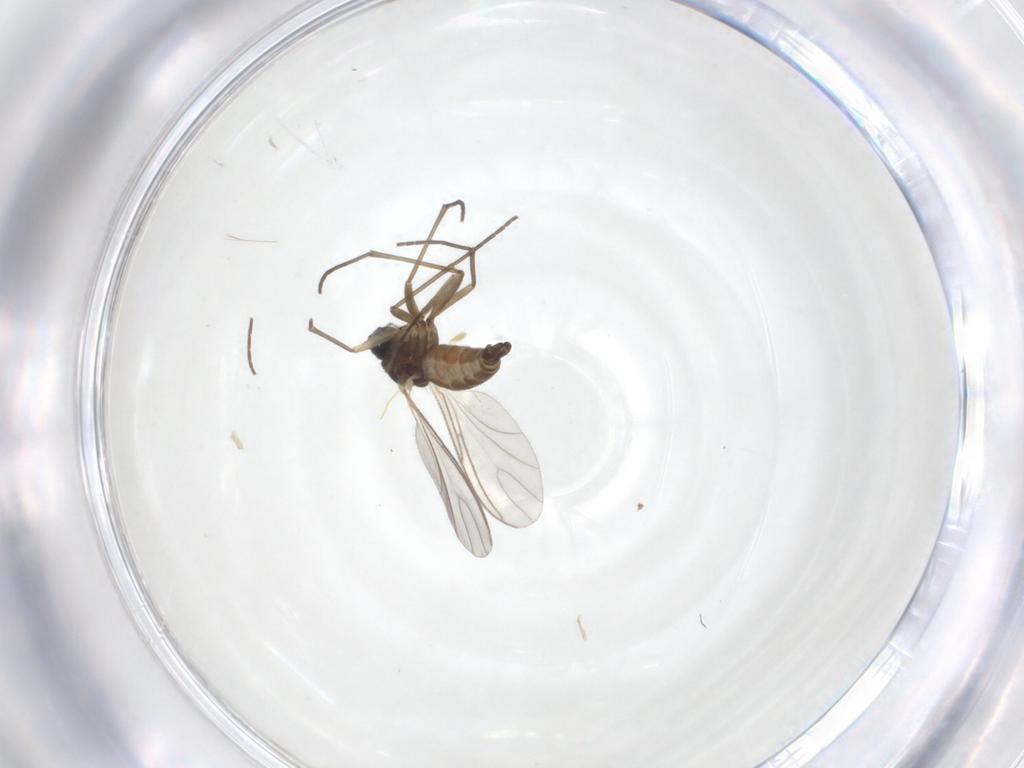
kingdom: Animalia
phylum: Arthropoda
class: Insecta
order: Diptera
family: Sciaridae
